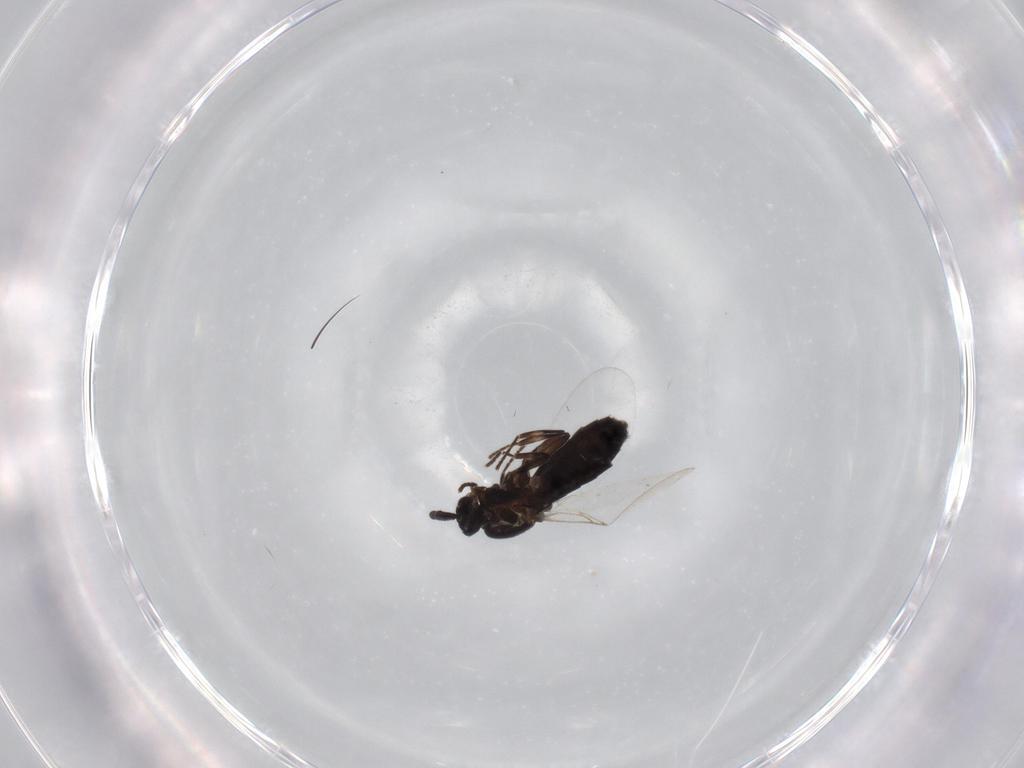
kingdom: Animalia
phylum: Arthropoda
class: Insecta
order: Diptera
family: Scatopsidae
